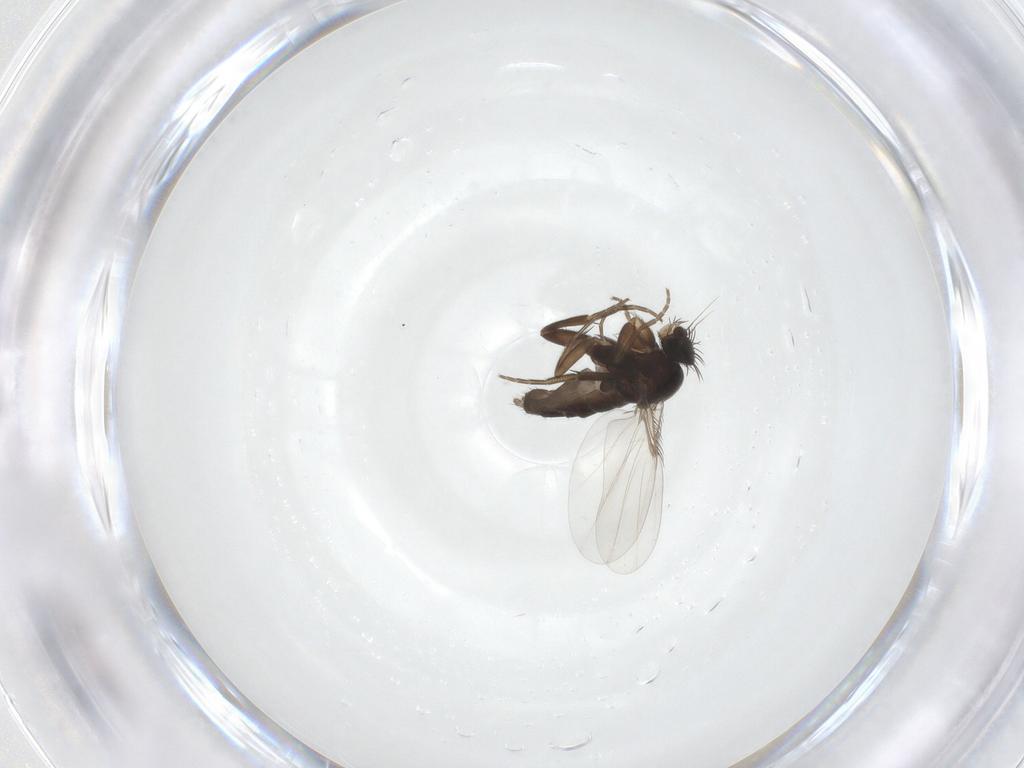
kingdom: Animalia
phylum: Arthropoda
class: Insecta
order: Diptera
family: Phoridae
